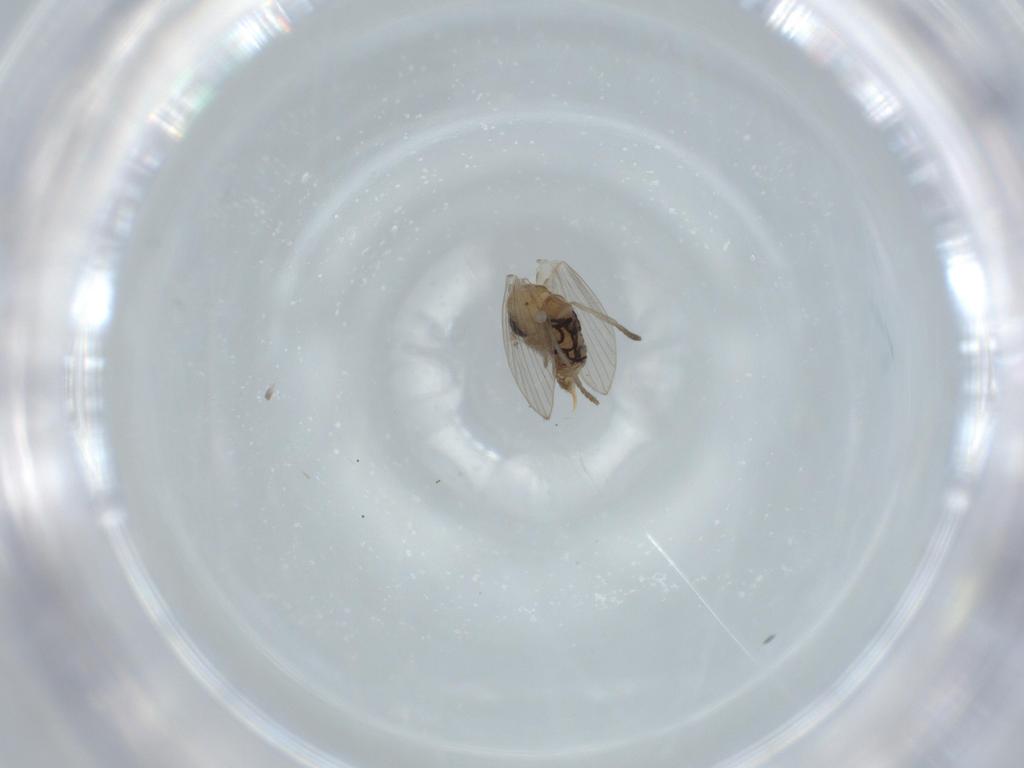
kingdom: Animalia
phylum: Arthropoda
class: Insecta
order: Diptera
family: Psychodidae
